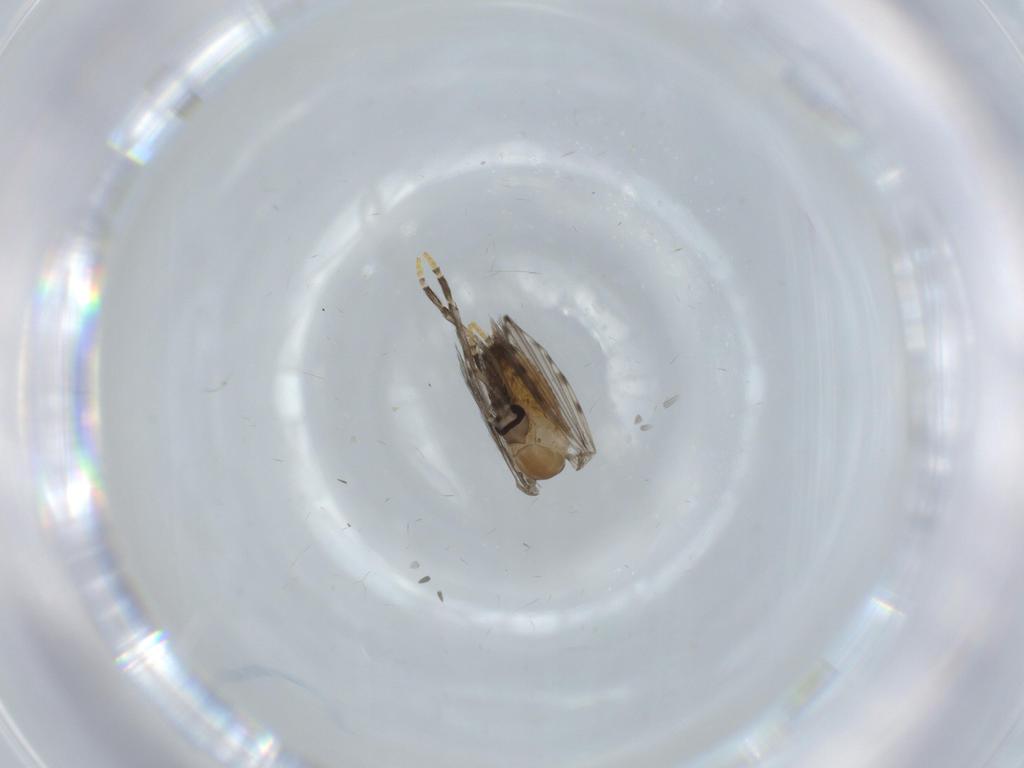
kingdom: Animalia
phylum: Arthropoda
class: Insecta
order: Diptera
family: Psychodidae
